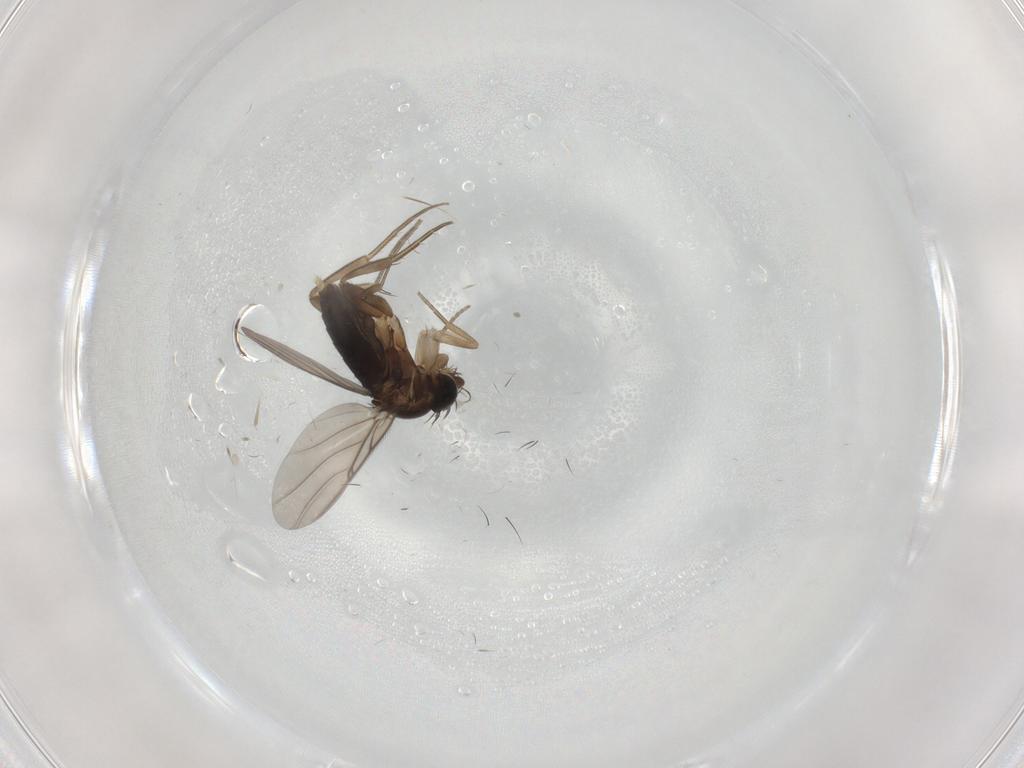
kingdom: Animalia
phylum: Arthropoda
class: Insecta
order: Diptera
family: Phoridae
